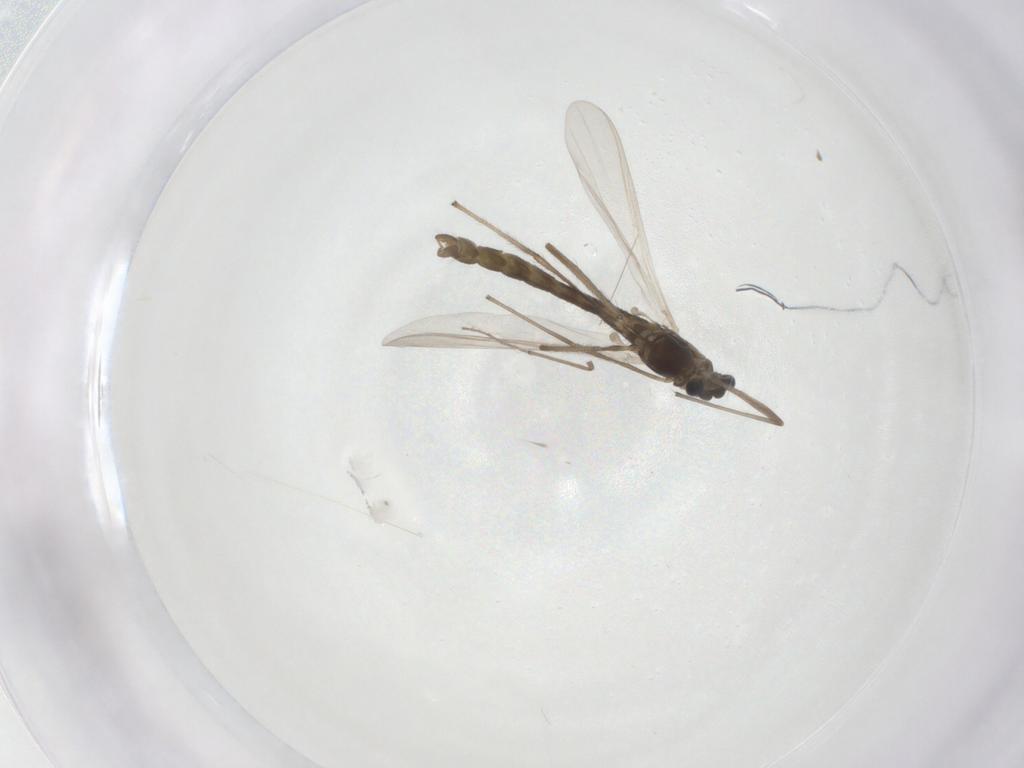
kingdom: Animalia
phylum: Arthropoda
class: Insecta
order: Diptera
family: Chironomidae
